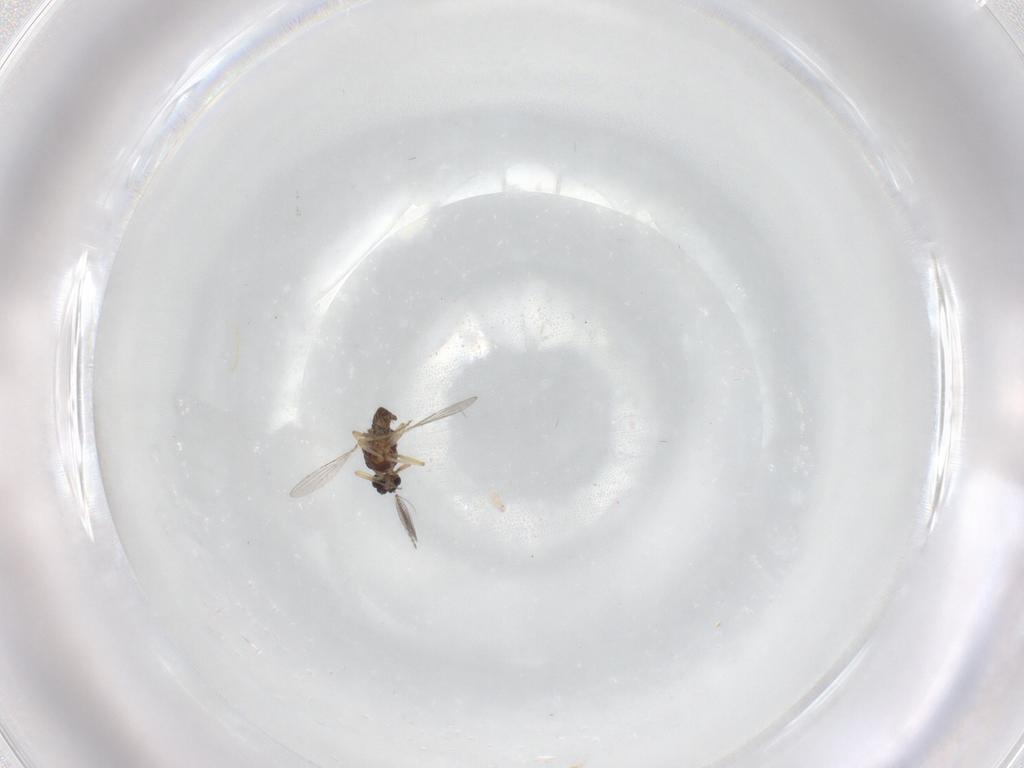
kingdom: Animalia
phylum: Arthropoda
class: Insecta
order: Diptera
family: Ceratopogonidae
